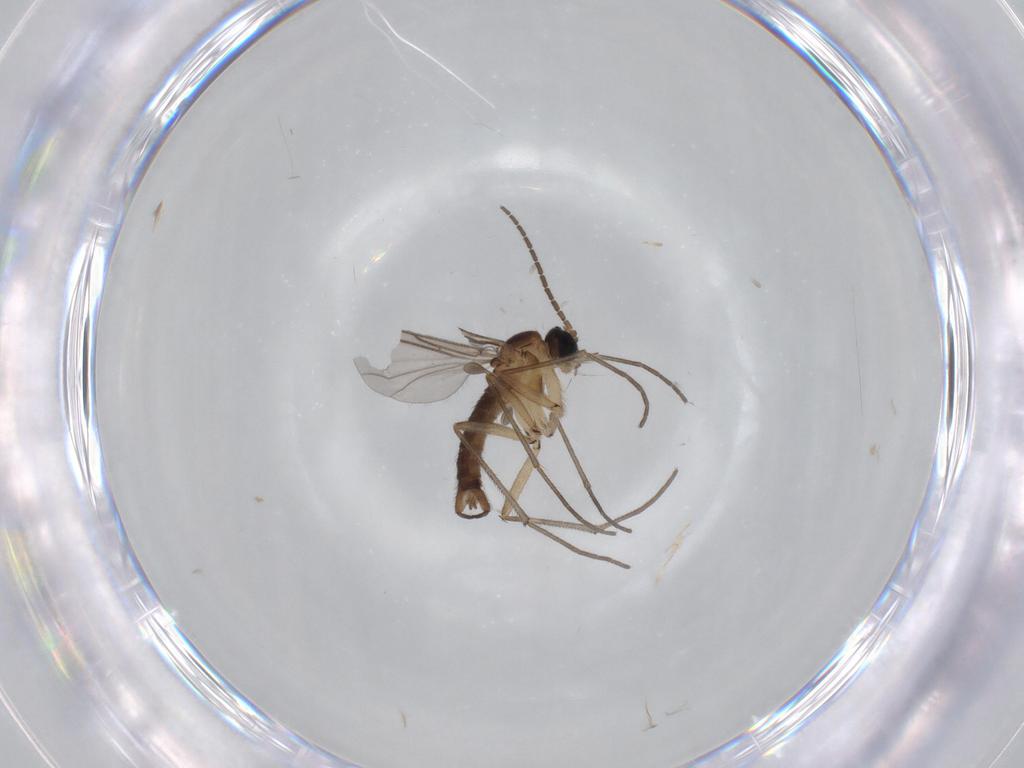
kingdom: Animalia
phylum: Arthropoda
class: Insecta
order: Diptera
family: Sciaridae
